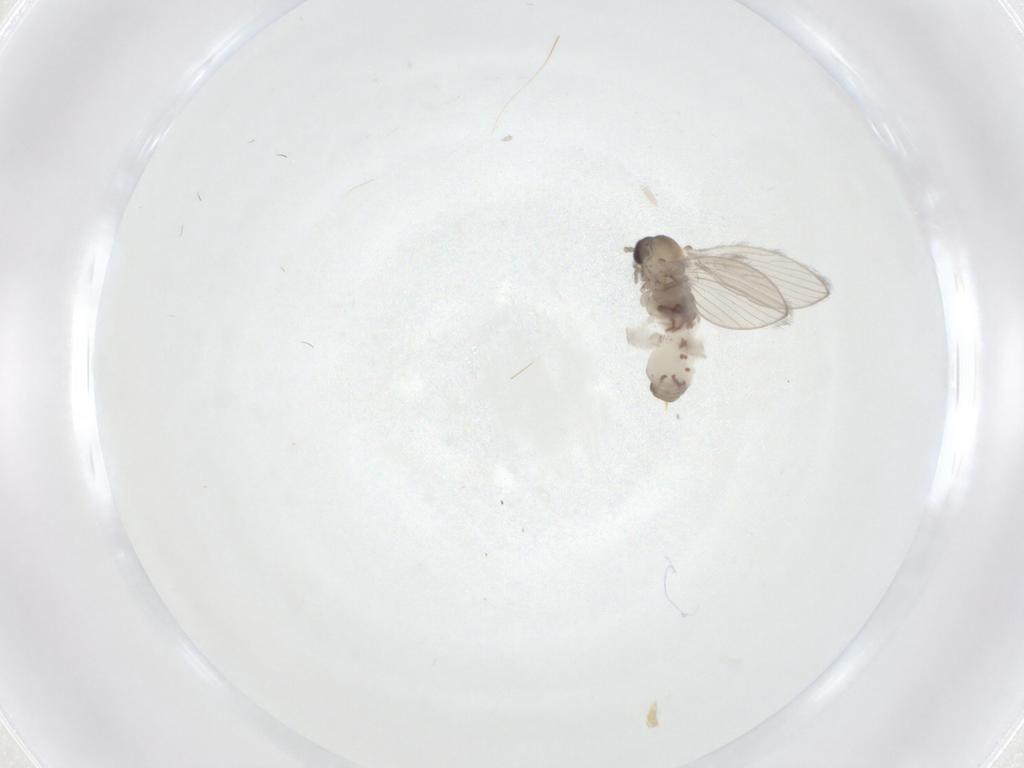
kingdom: Animalia
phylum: Arthropoda
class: Insecta
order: Diptera
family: Psychodidae
